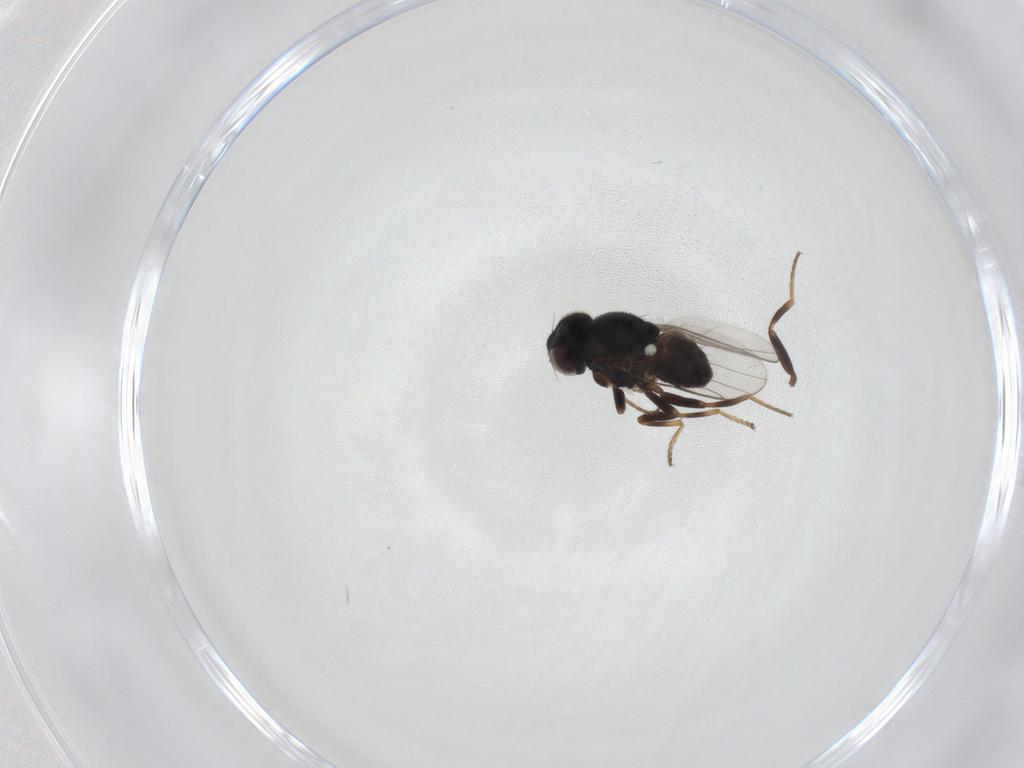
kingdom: Animalia
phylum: Arthropoda
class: Insecta
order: Diptera
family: Chloropidae
